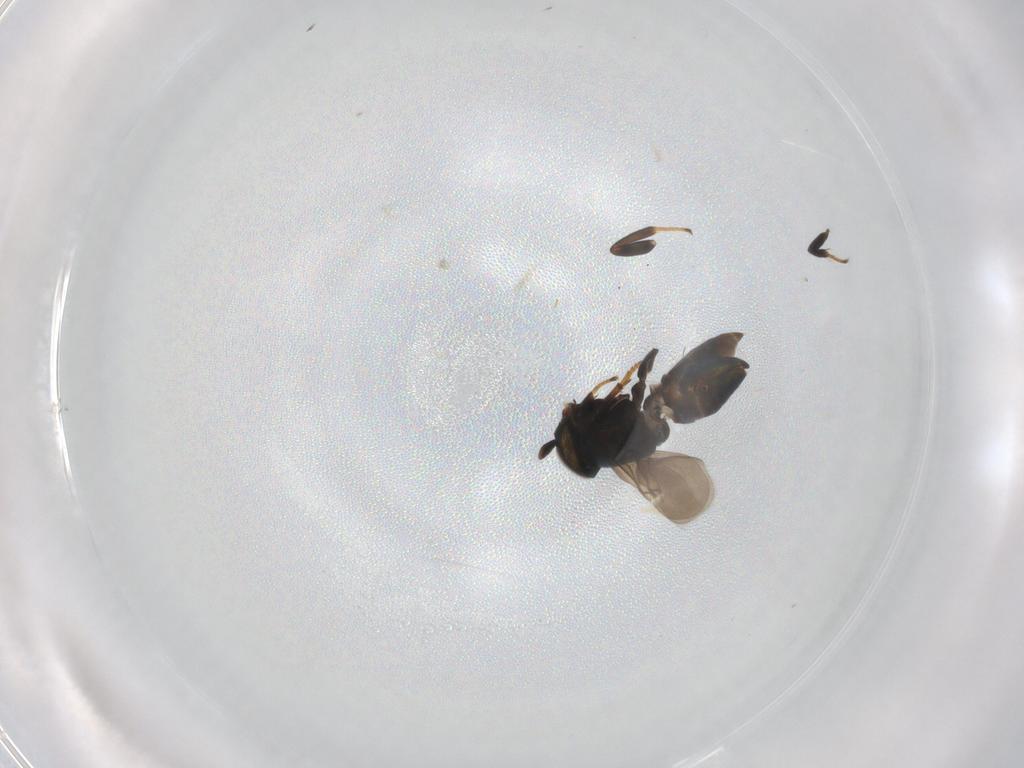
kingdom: Animalia
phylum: Arthropoda
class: Insecta
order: Hymenoptera
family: Encyrtidae
